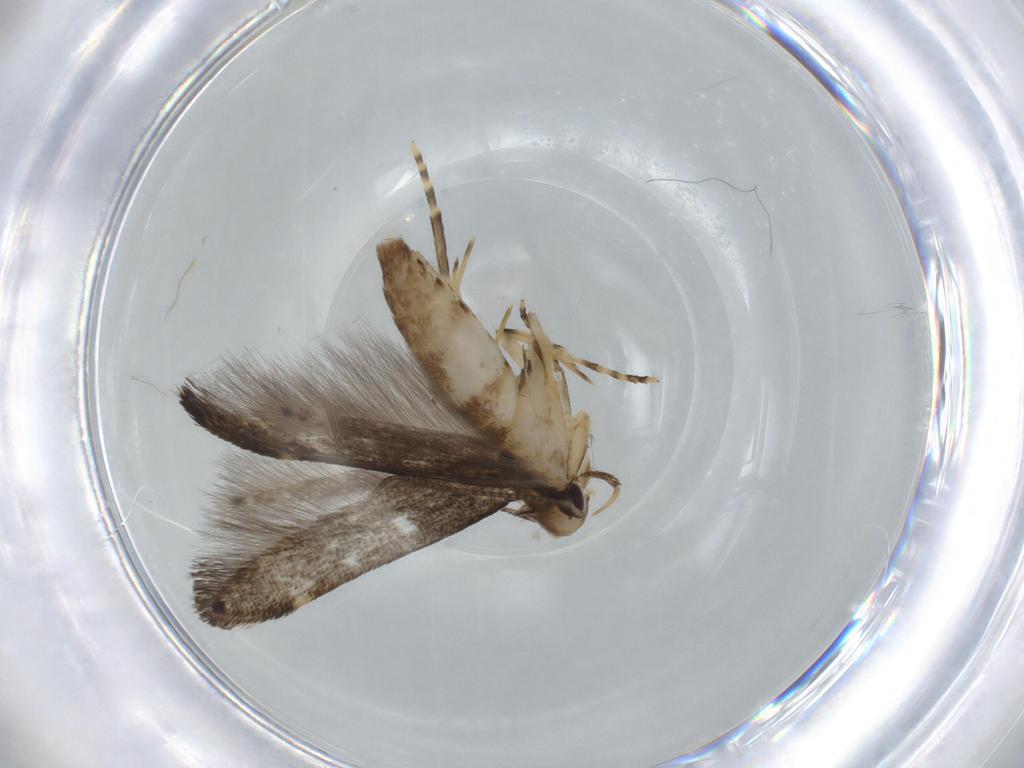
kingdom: Animalia
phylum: Arthropoda
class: Insecta
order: Lepidoptera
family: Momphidae
